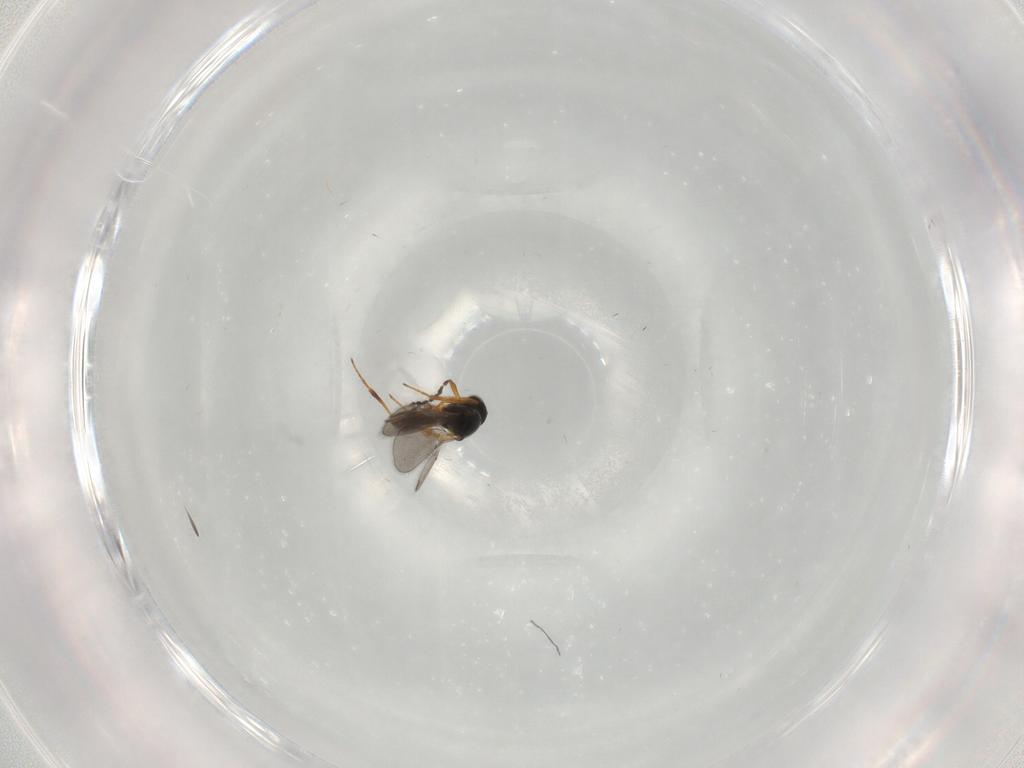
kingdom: Animalia
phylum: Arthropoda
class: Insecta
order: Hymenoptera
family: Platygastridae
